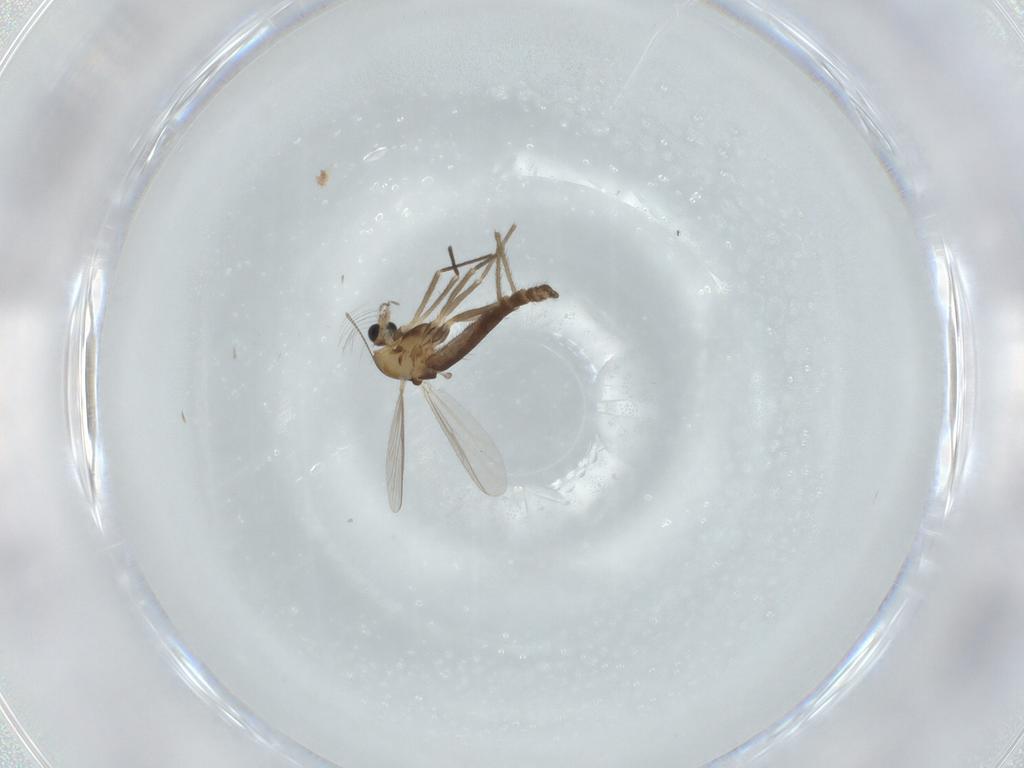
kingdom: Animalia
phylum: Arthropoda
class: Insecta
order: Diptera
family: Chironomidae
